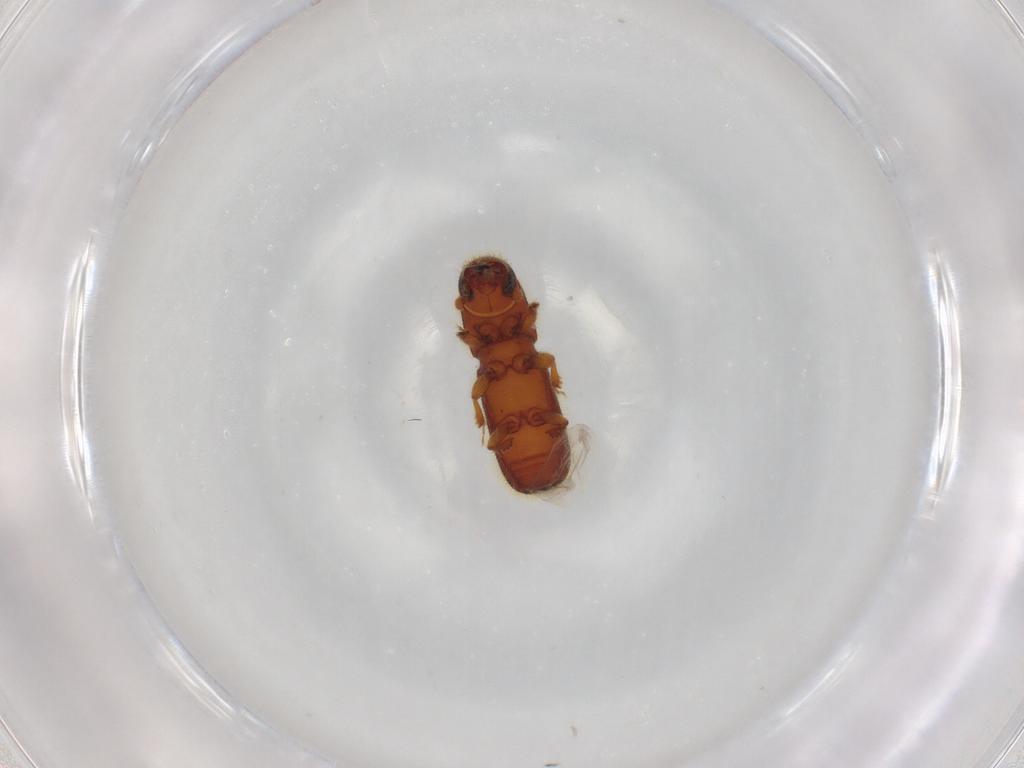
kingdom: Animalia
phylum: Arthropoda
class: Insecta
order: Coleoptera
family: Curculionidae
